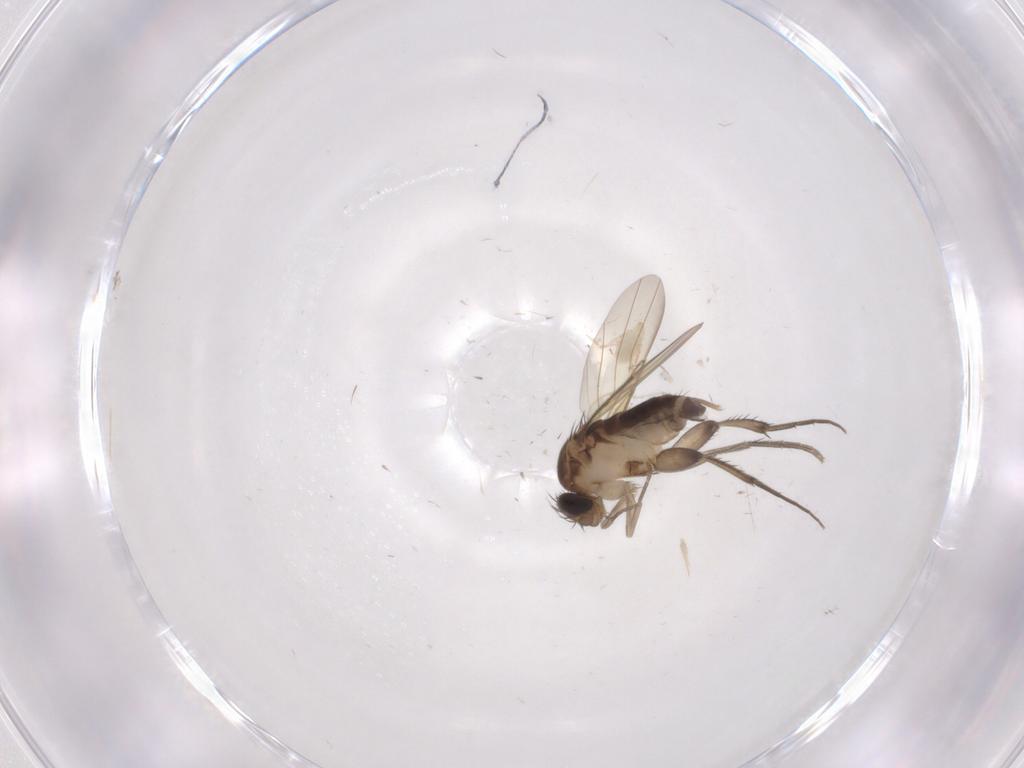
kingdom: Animalia
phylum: Arthropoda
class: Insecta
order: Diptera
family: Phoridae
